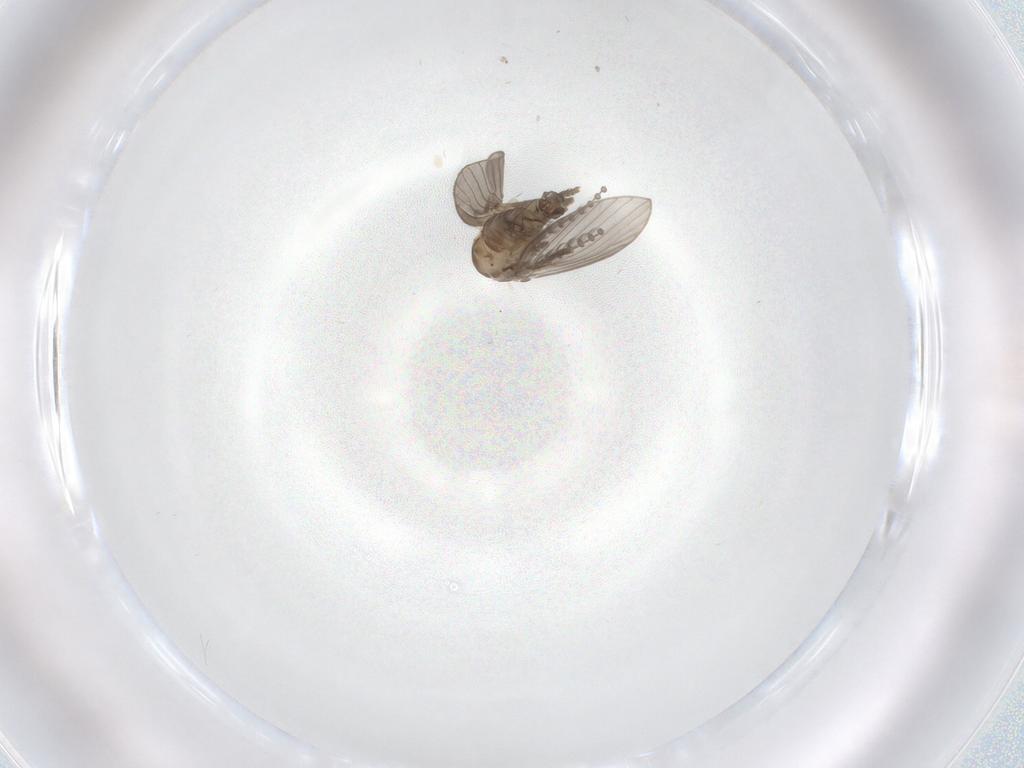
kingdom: Animalia
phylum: Arthropoda
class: Insecta
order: Diptera
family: Psychodidae
